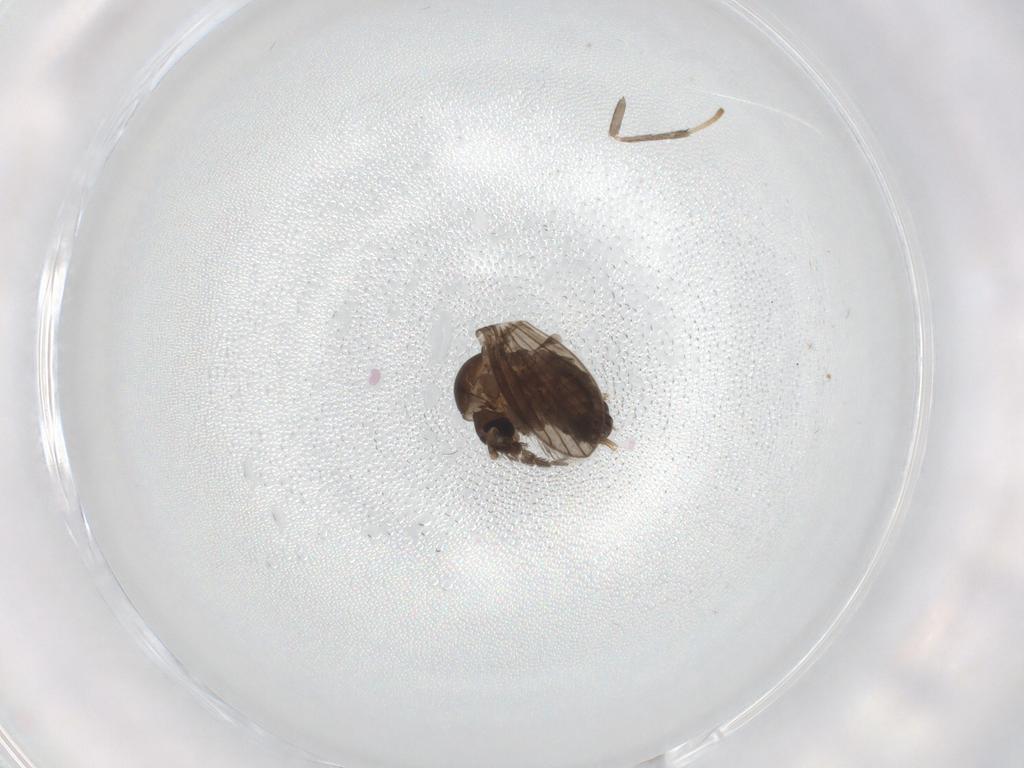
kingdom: Animalia
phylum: Arthropoda
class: Insecta
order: Diptera
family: Psychodidae
